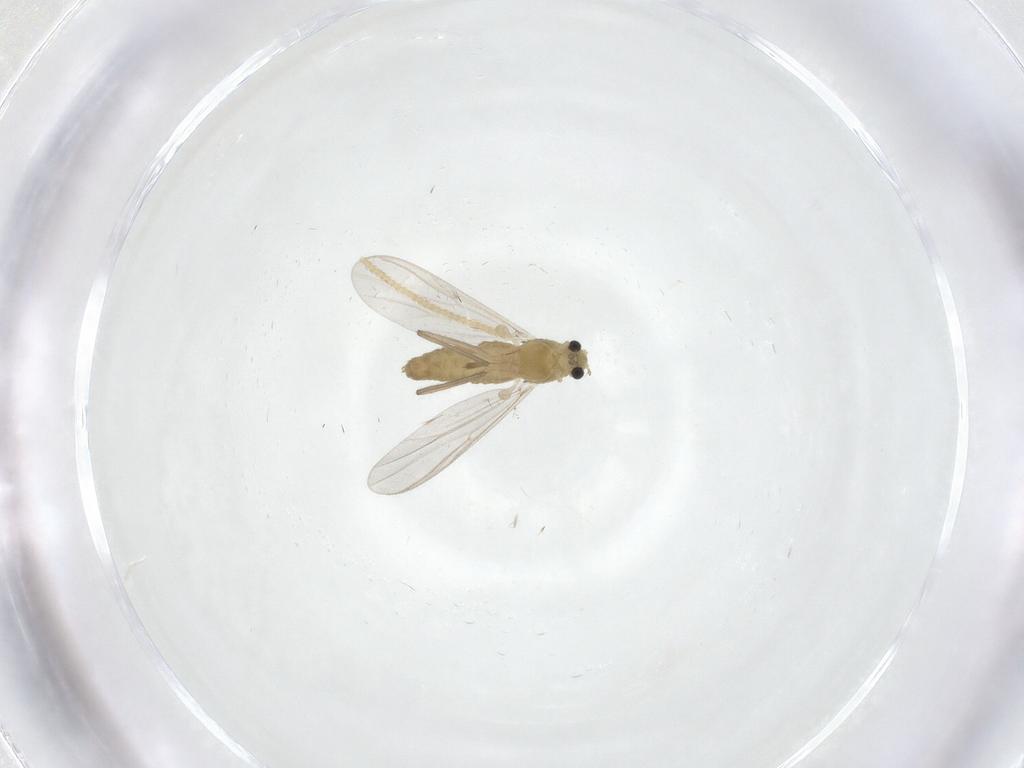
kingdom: Animalia
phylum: Arthropoda
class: Insecta
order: Diptera
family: Chironomidae
